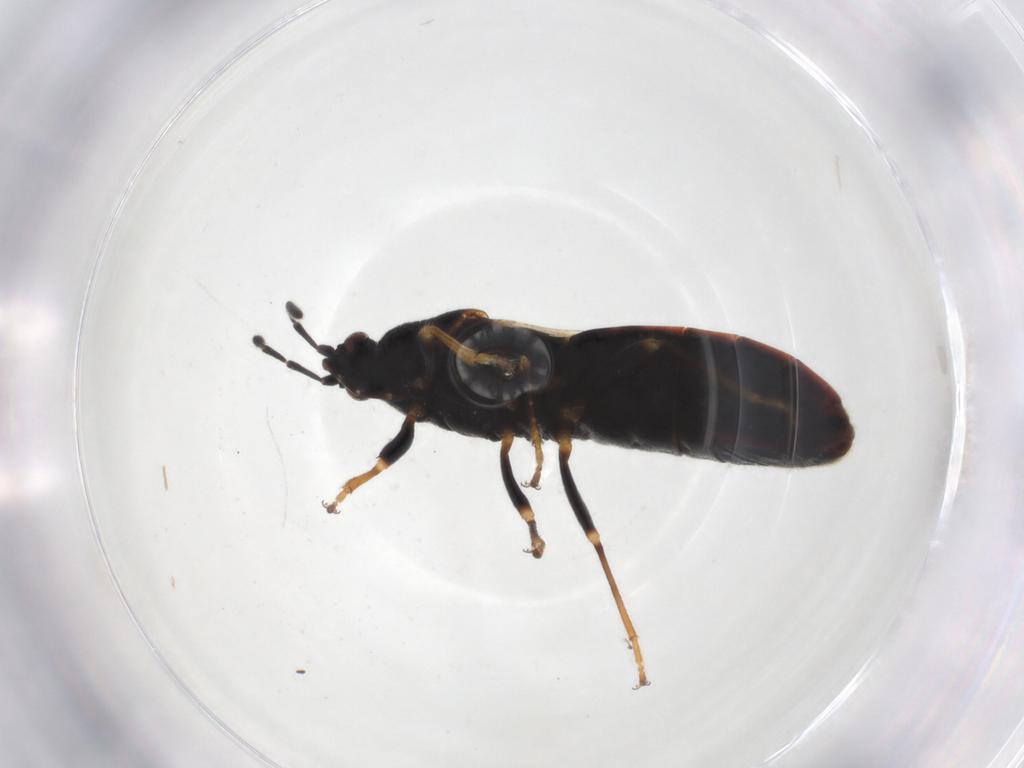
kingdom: Animalia
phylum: Arthropoda
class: Insecta
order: Hemiptera
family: Blissidae
